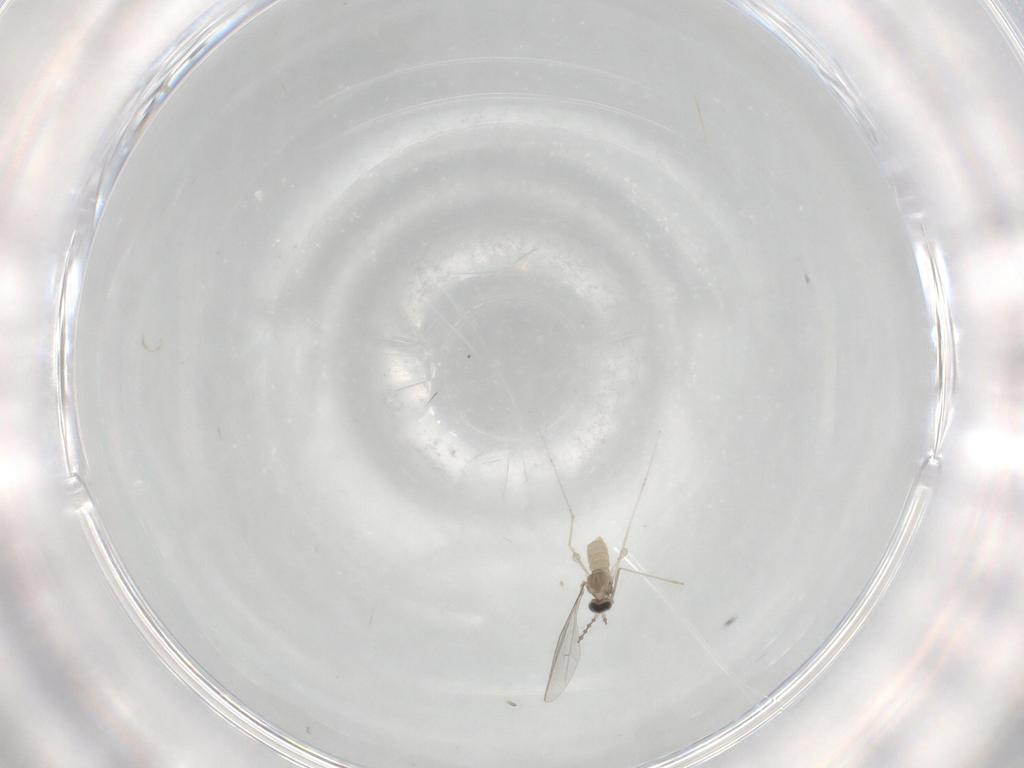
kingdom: Animalia
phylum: Arthropoda
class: Insecta
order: Diptera
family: Cecidomyiidae
